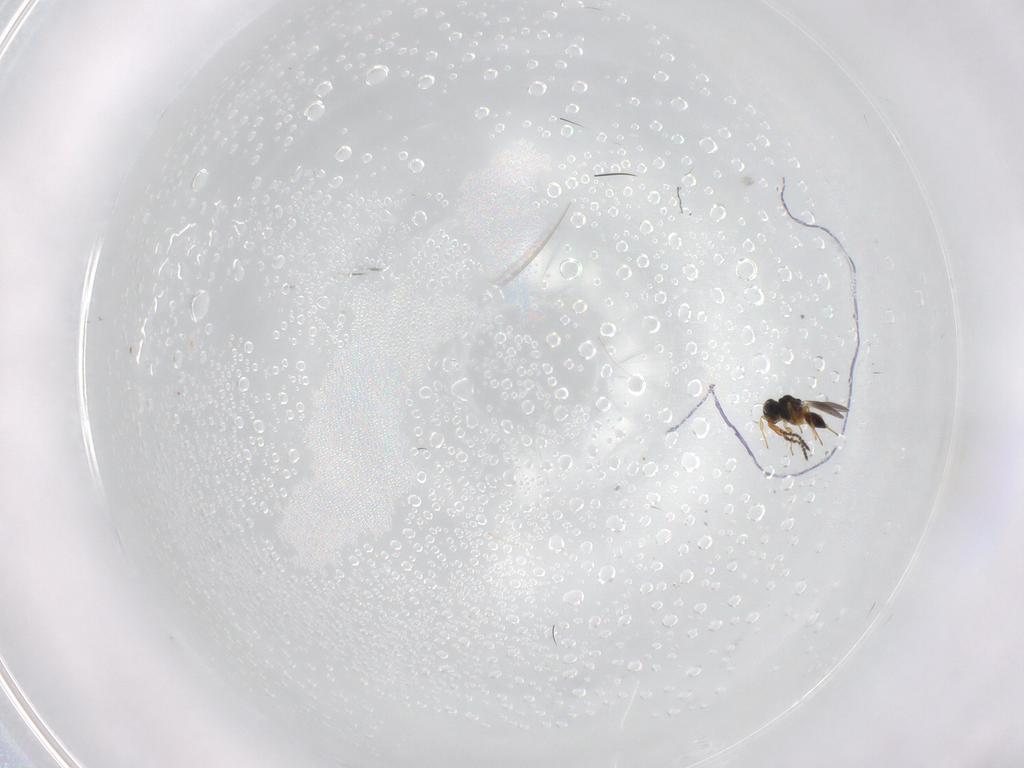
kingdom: Animalia
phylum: Arthropoda
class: Insecta
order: Hymenoptera
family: Platygastridae
